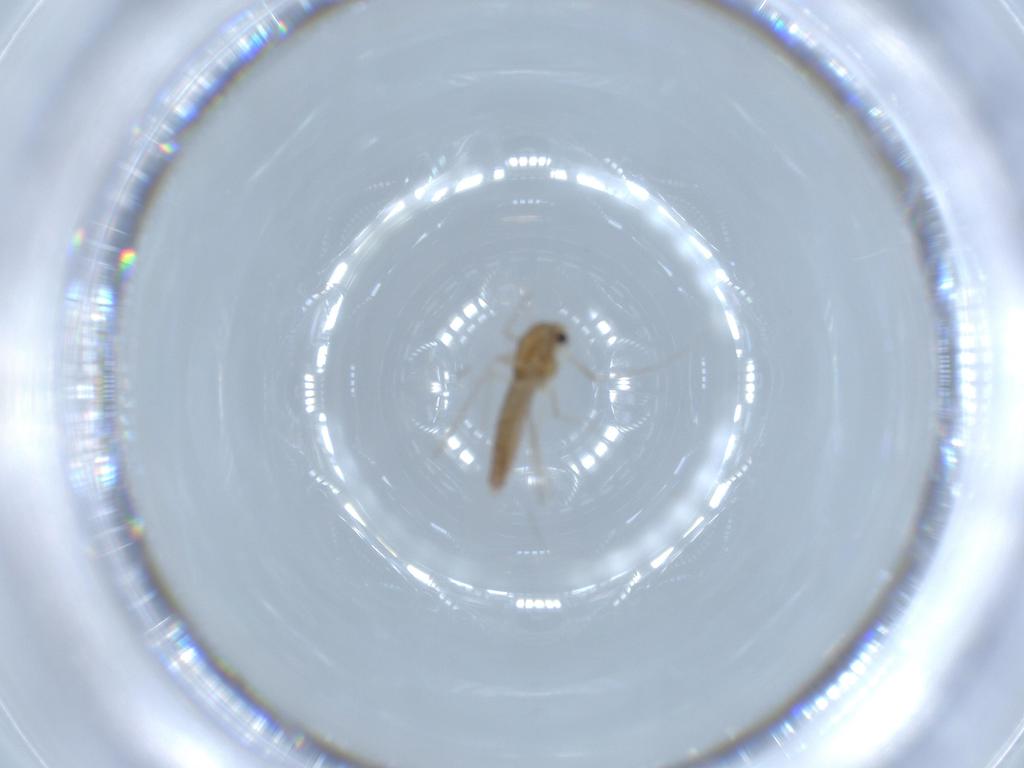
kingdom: Animalia
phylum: Arthropoda
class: Insecta
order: Diptera
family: Chironomidae
